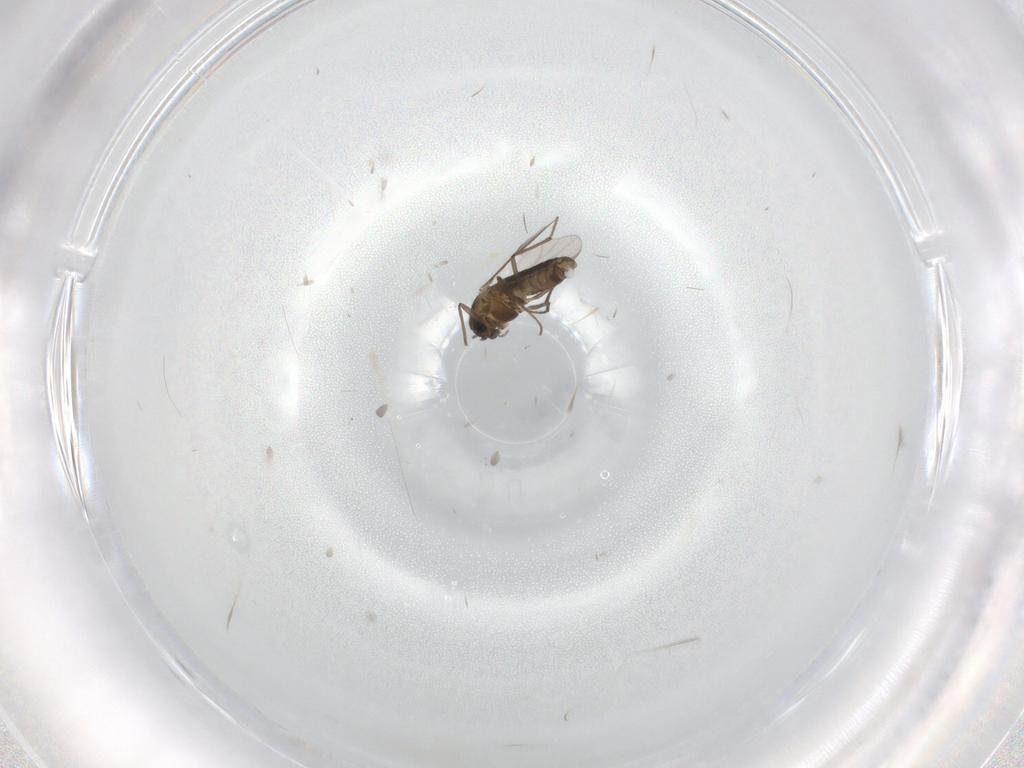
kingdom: Animalia
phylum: Arthropoda
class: Insecta
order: Diptera
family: Chironomidae
